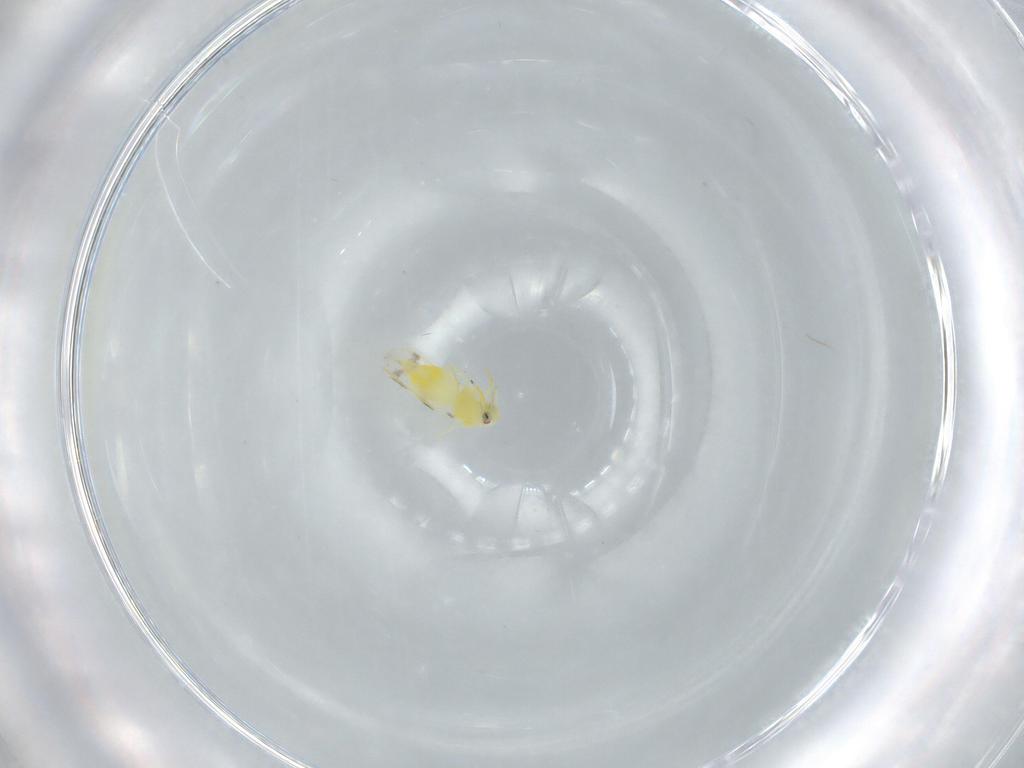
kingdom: Animalia
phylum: Arthropoda
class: Insecta
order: Hemiptera
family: Aleyrodidae
